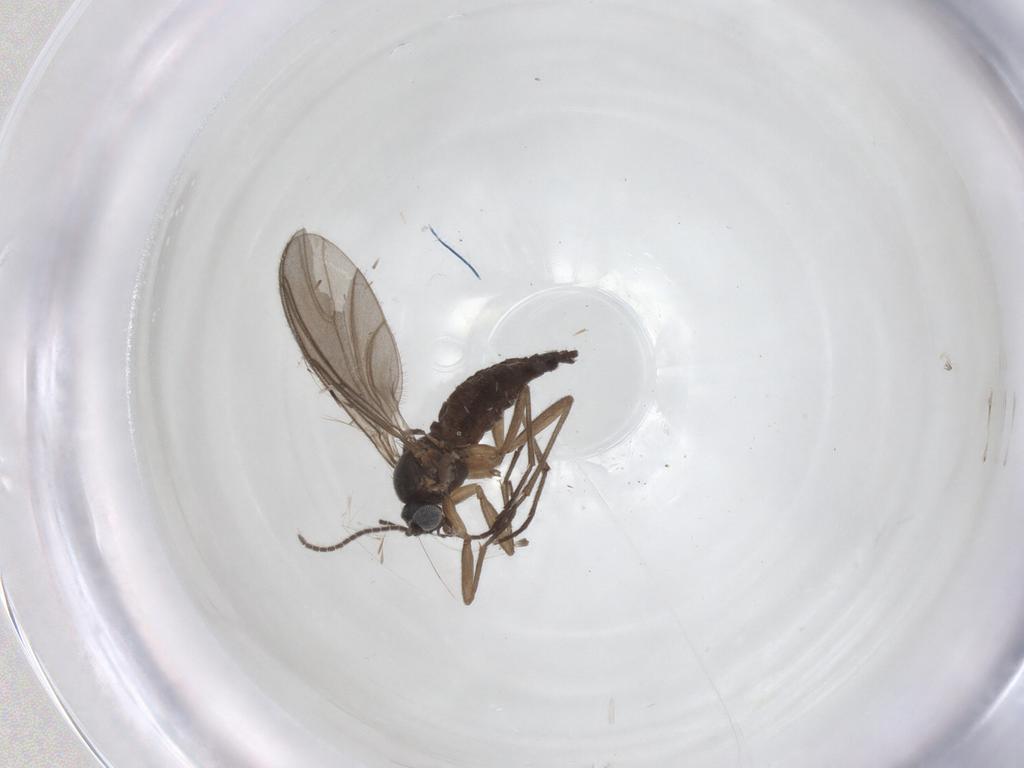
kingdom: Animalia
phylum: Arthropoda
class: Insecta
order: Diptera
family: Sciaridae
